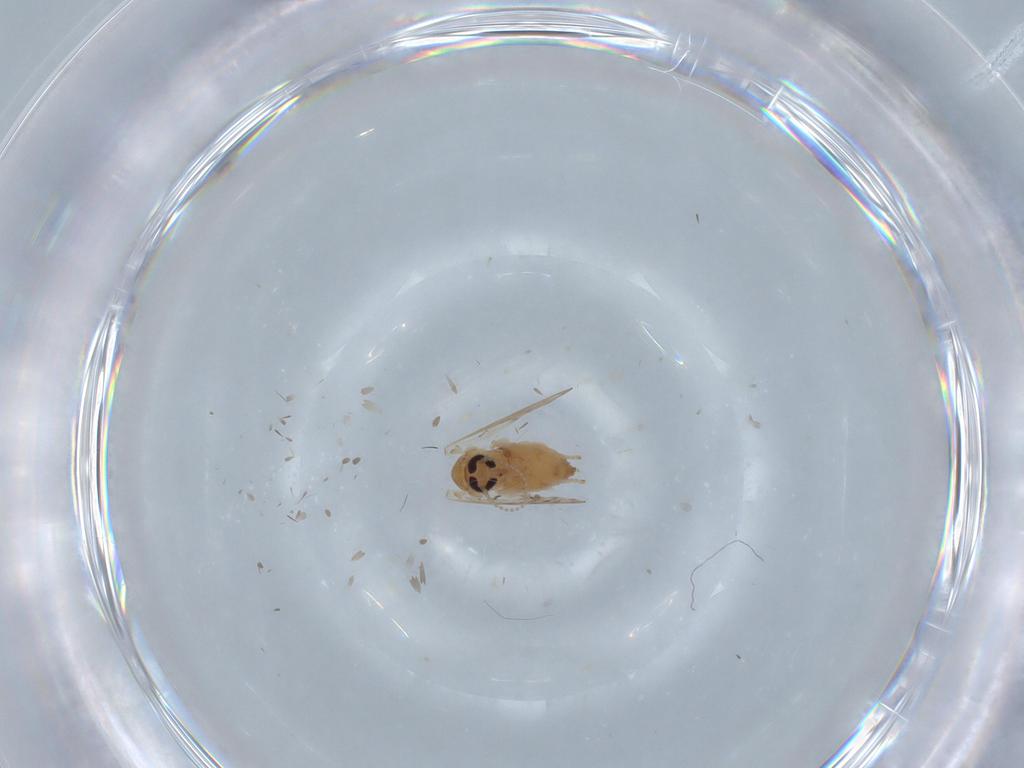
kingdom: Animalia
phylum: Arthropoda
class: Insecta
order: Diptera
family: Psychodidae
